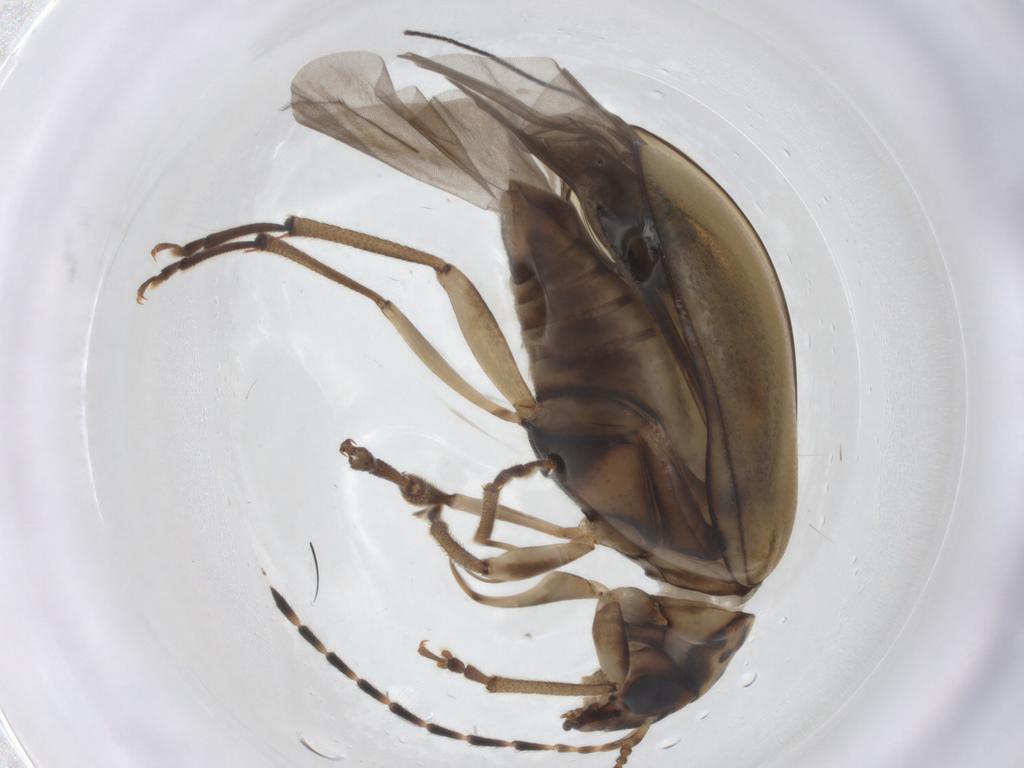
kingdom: Animalia
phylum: Arthropoda
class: Insecta
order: Coleoptera
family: Chrysomelidae
